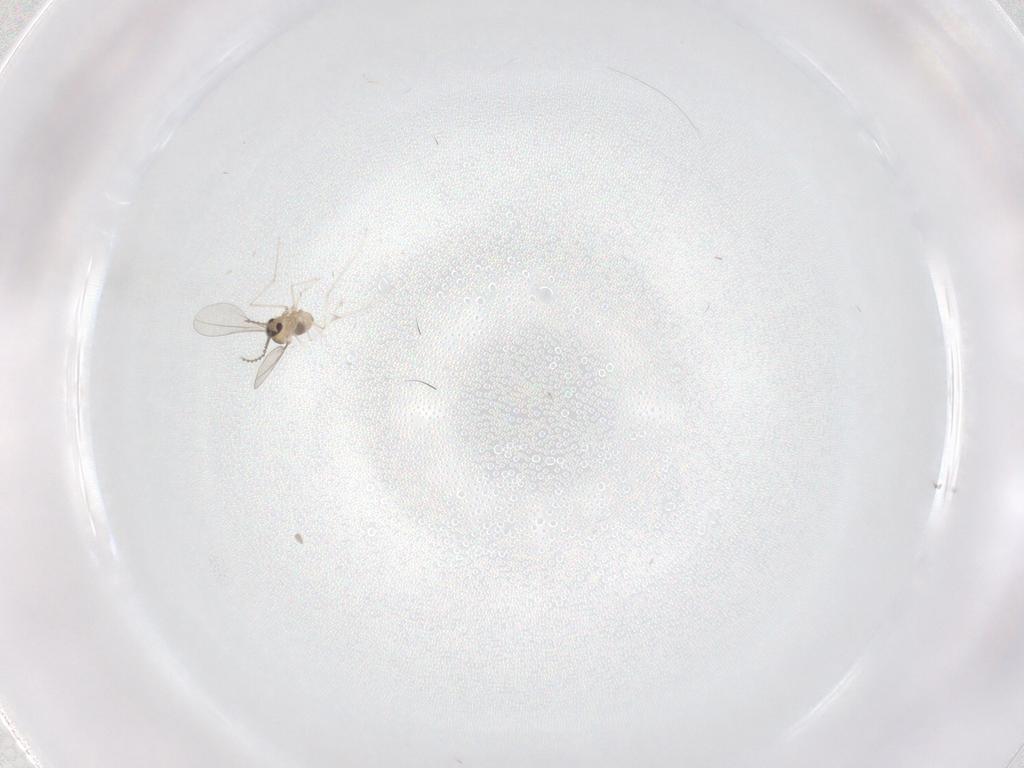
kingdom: Animalia
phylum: Arthropoda
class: Insecta
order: Diptera
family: Cecidomyiidae
